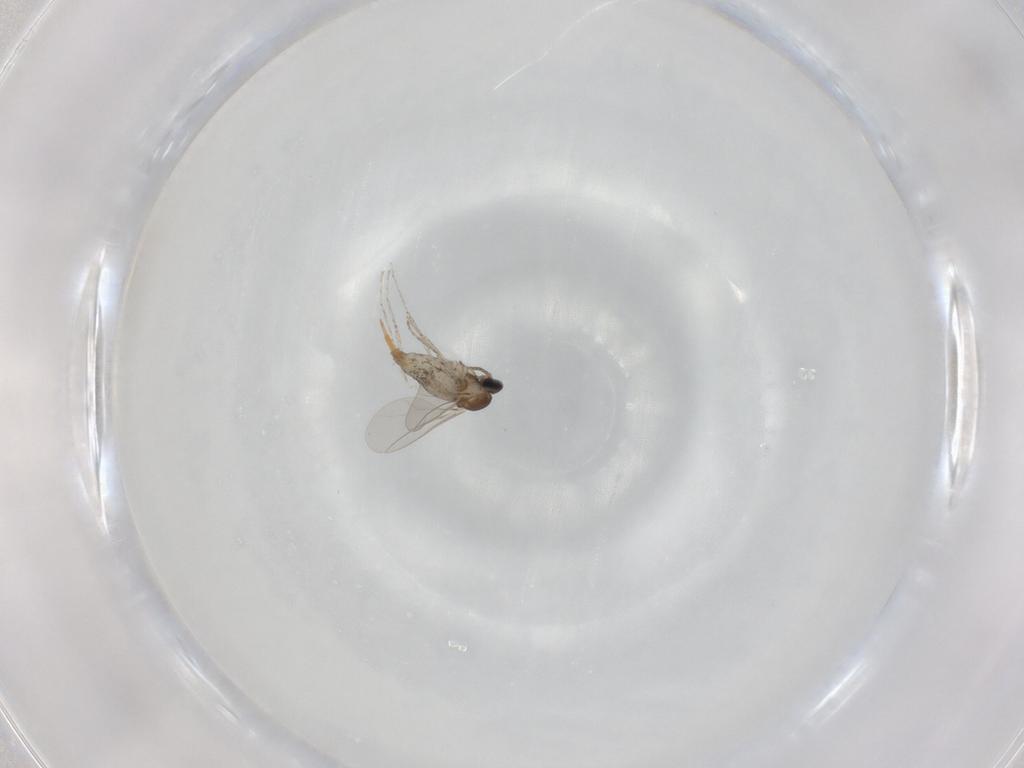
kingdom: Animalia
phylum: Arthropoda
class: Insecta
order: Diptera
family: Cecidomyiidae
